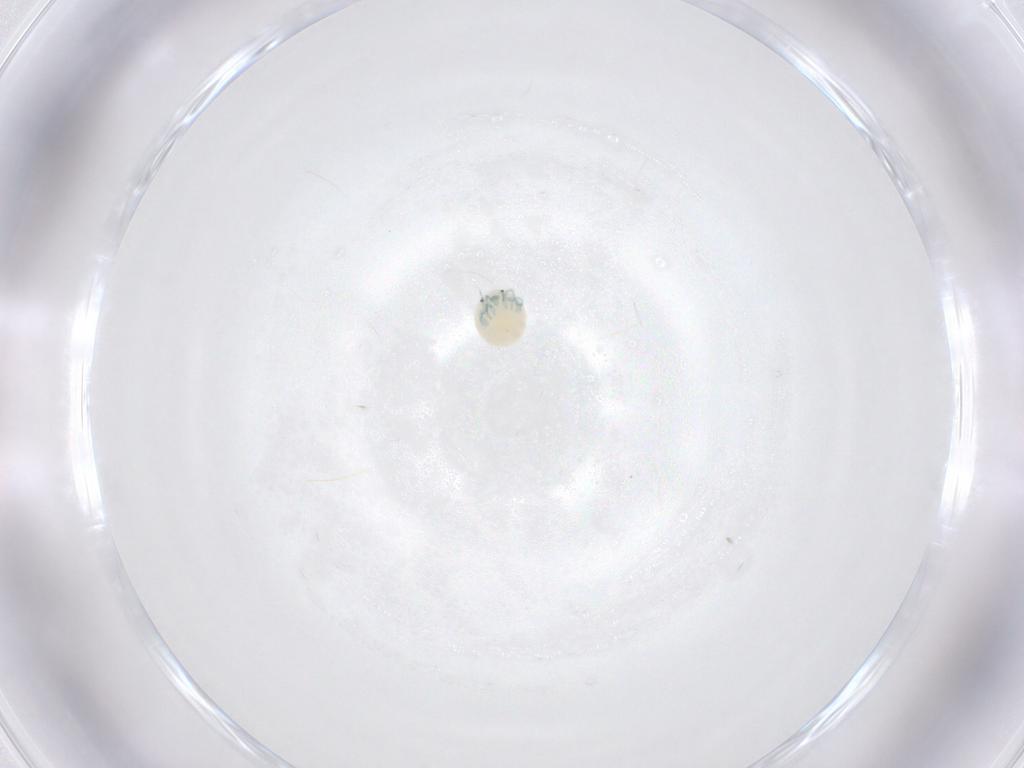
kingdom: Animalia
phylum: Arthropoda
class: Arachnida
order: Trombidiformes
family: Arrenuridae
